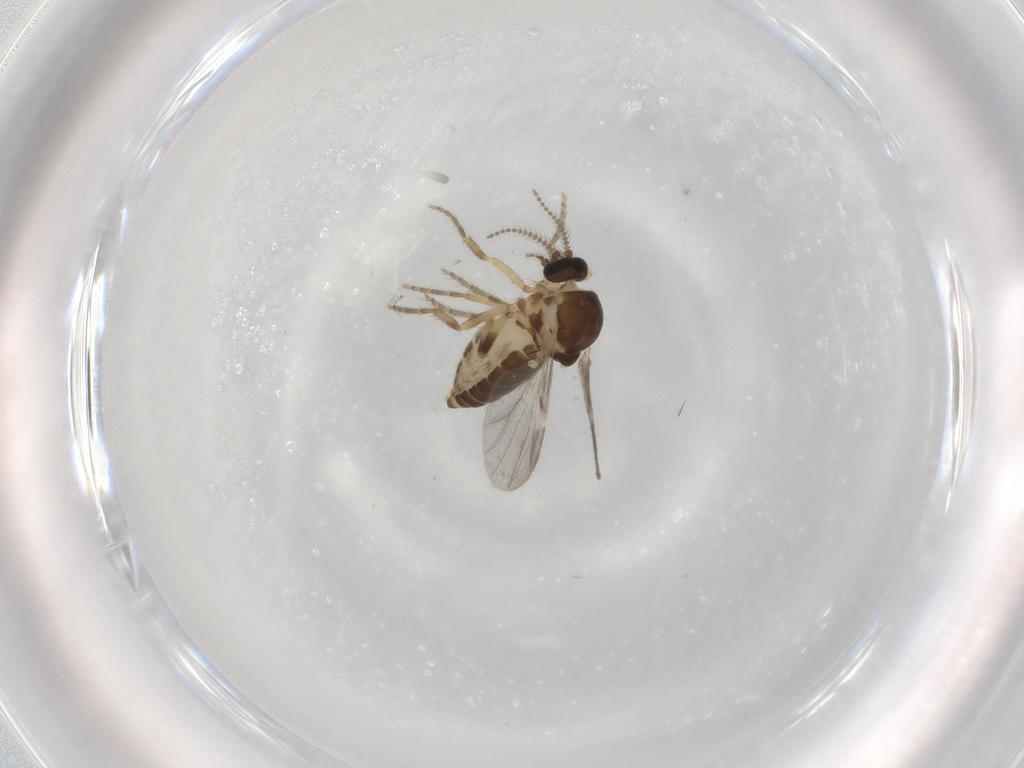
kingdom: Animalia
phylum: Arthropoda
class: Insecta
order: Diptera
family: Ceratopogonidae
